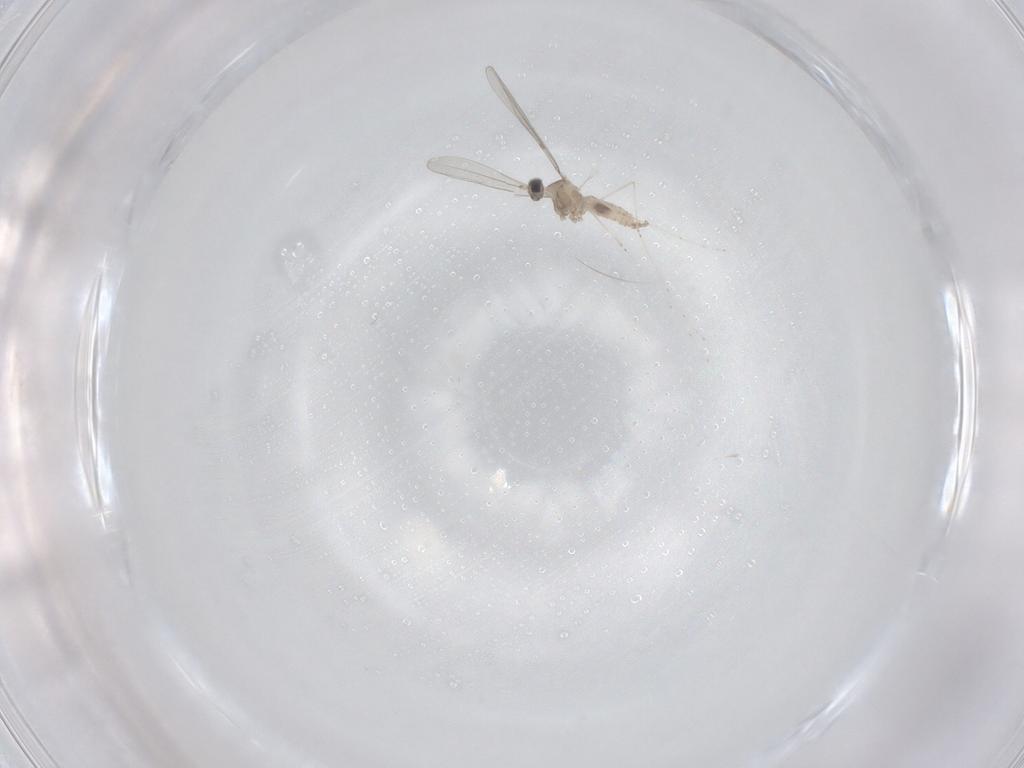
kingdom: Animalia
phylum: Arthropoda
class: Insecta
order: Diptera
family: Cecidomyiidae
